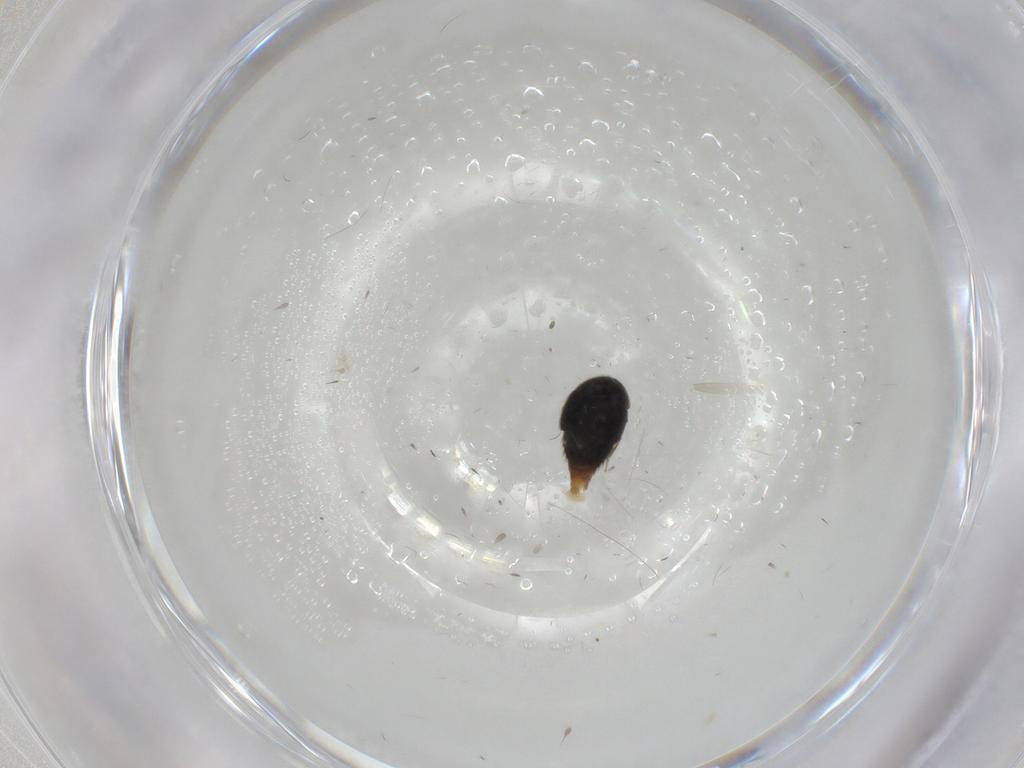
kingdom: Animalia
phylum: Arthropoda
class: Insecta
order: Coleoptera
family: Staphylinidae
